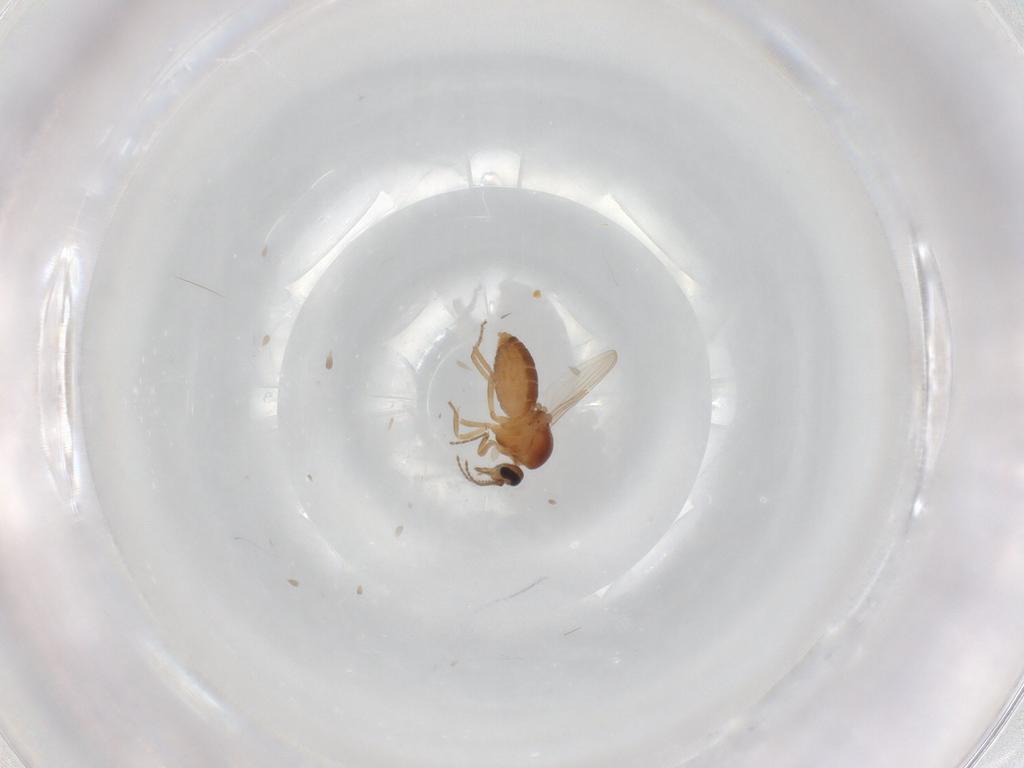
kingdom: Animalia
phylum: Arthropoda
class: Insecta
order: Diptera
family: Ceratopogonidae
